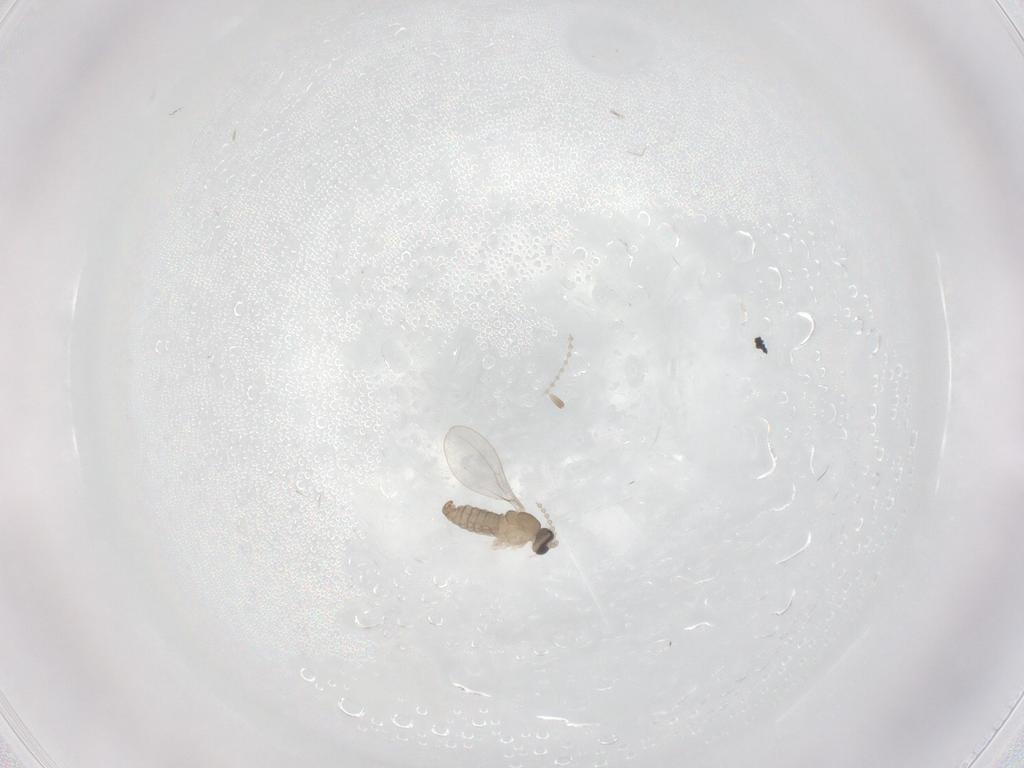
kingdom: Animalia
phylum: Arthropoda
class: Insecta
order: Diptera
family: Cecidomyiidae
